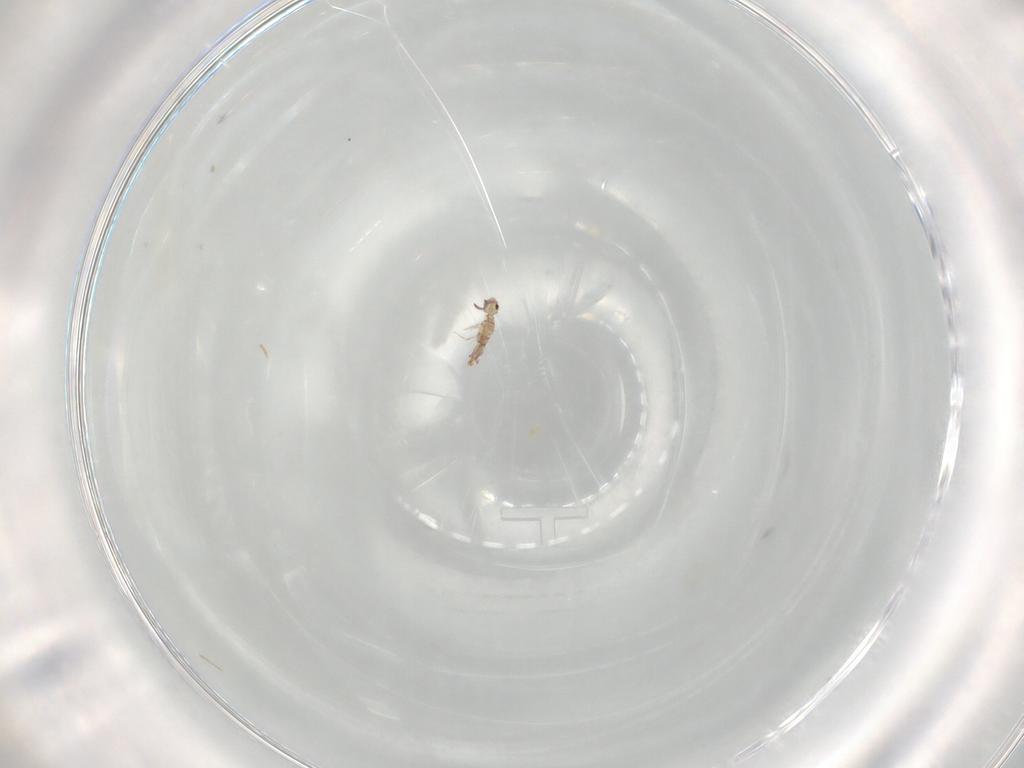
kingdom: Animalia
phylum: Arthropoda
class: Collembola
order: Entomobryomorpha
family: Entomobryidae
